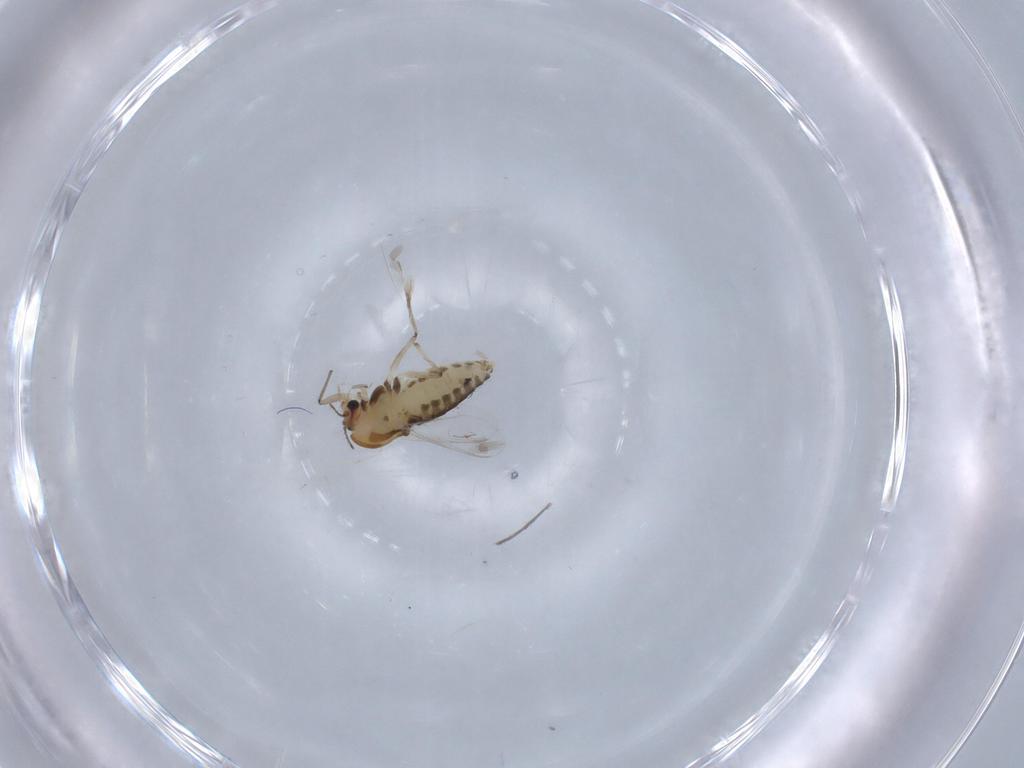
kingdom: Animalia
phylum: Arthropoda
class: Insecta
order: Diptera
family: Chironomidae
